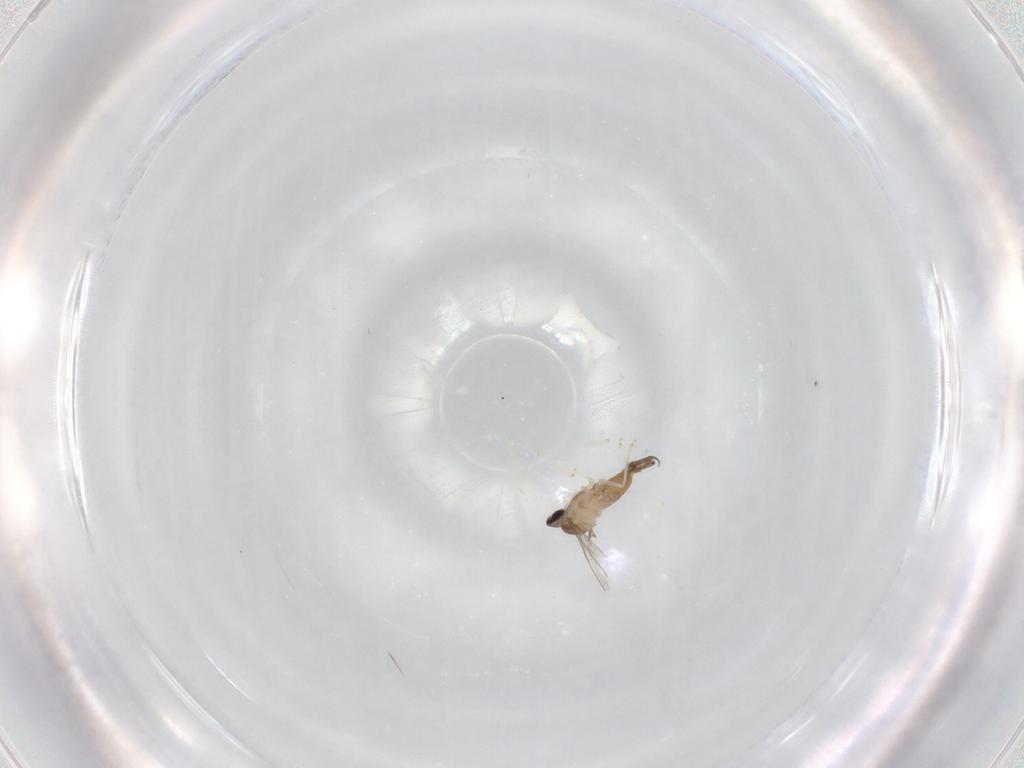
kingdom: Animalia
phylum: Arthropoda
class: Insecta
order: Diptera
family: Cecidomyiidae
